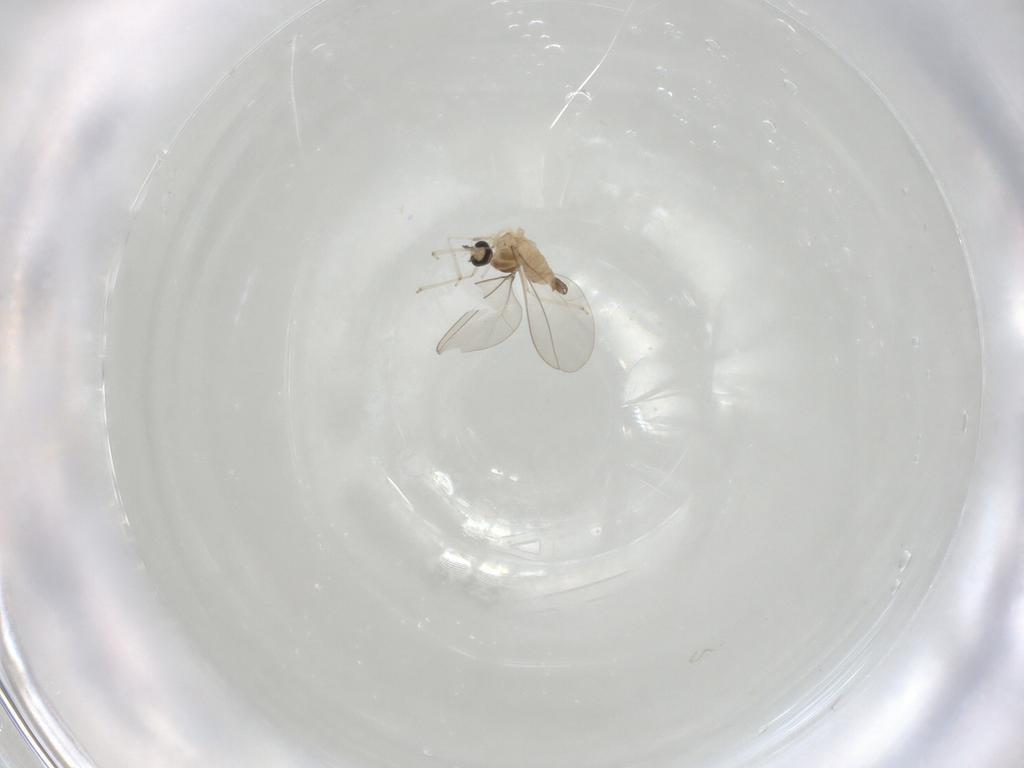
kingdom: Animalia
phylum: Arthropoda
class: Insecta
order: Diptera
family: Cecidomyiidae
